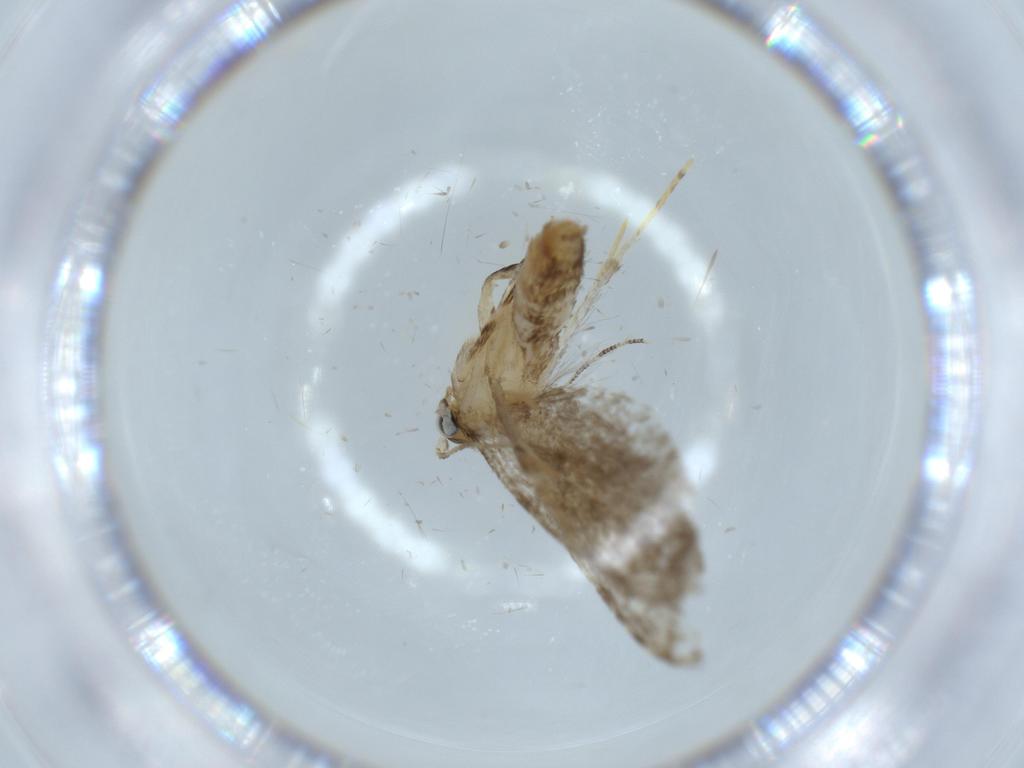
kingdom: Animalia
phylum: Arthropoda
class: Insecta
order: Lepidoptera
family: Tineidae
